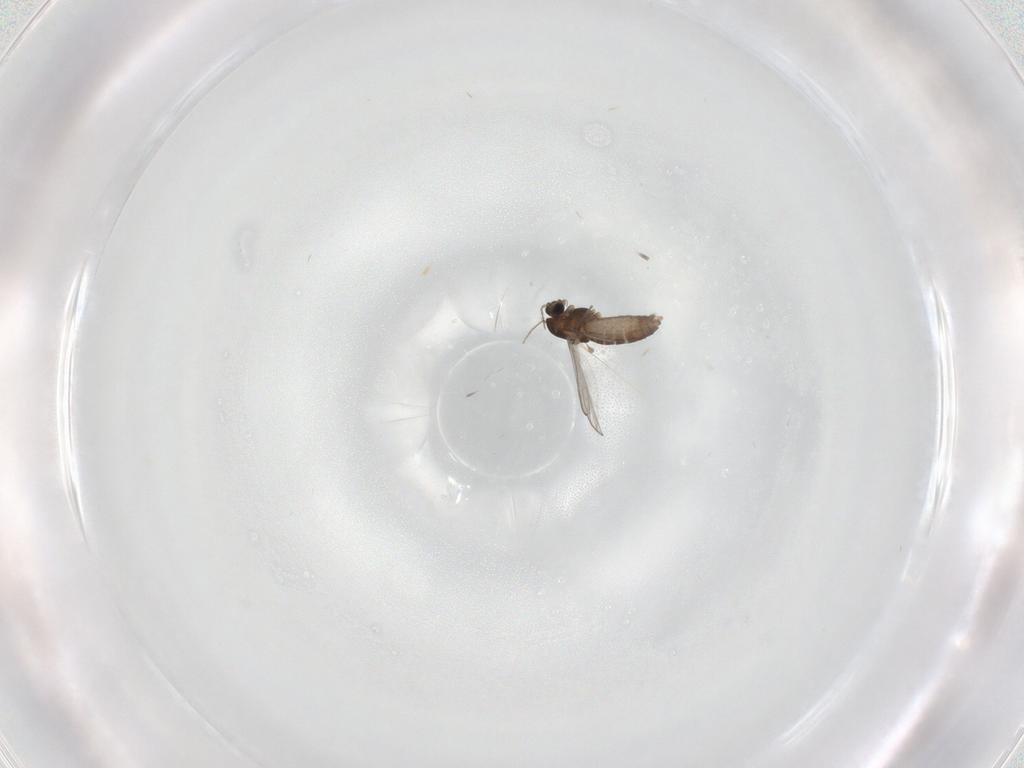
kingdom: Animalia
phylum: Arthropoda
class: Insecta
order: Diptera
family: Chironomidae
